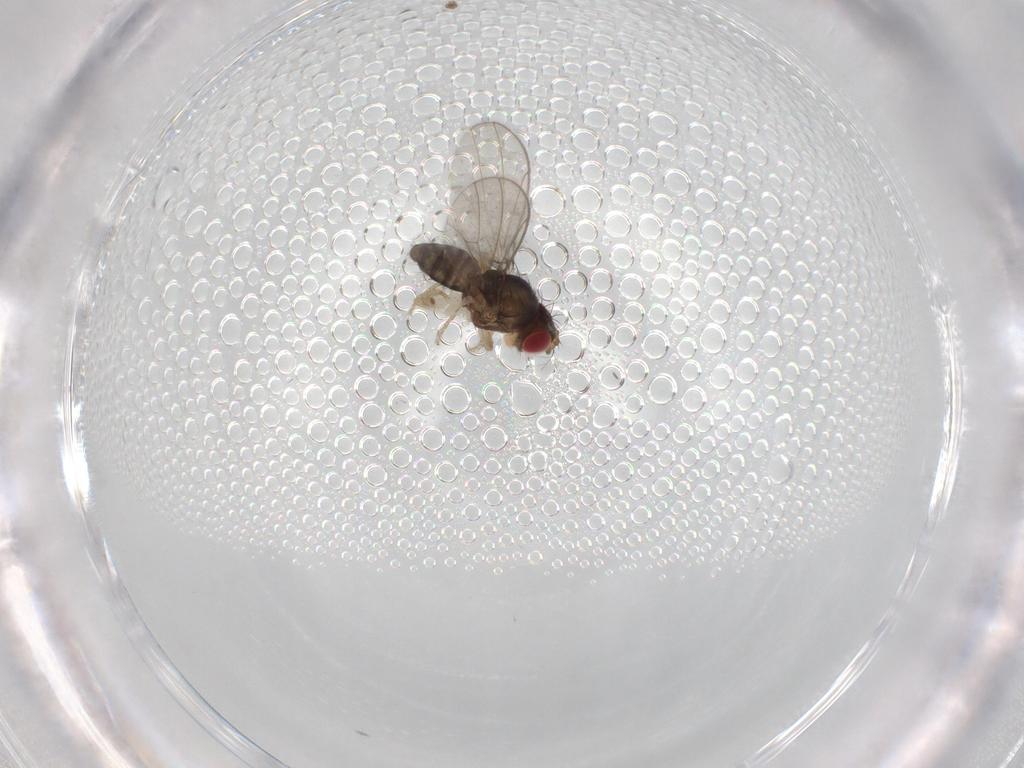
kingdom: Animalia
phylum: Arthropoda
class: Insecta
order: Diptera
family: Drosophilidae
